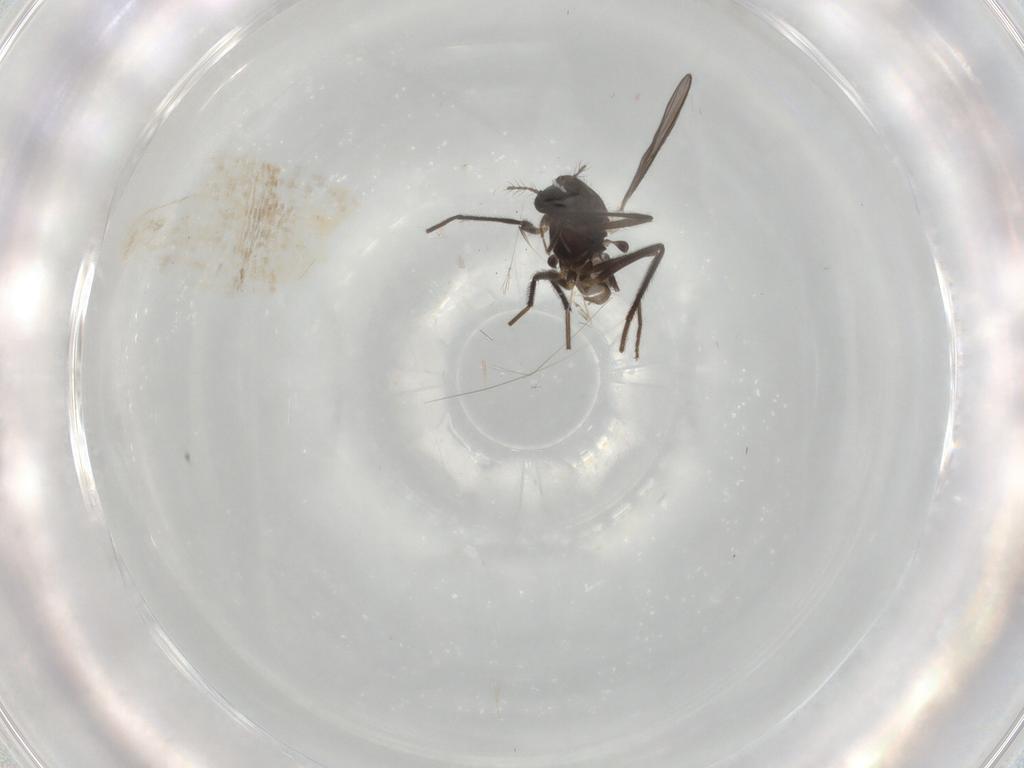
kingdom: Animalia
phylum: Arthropoda
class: Insecta
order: Diptera
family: Chironomidae
